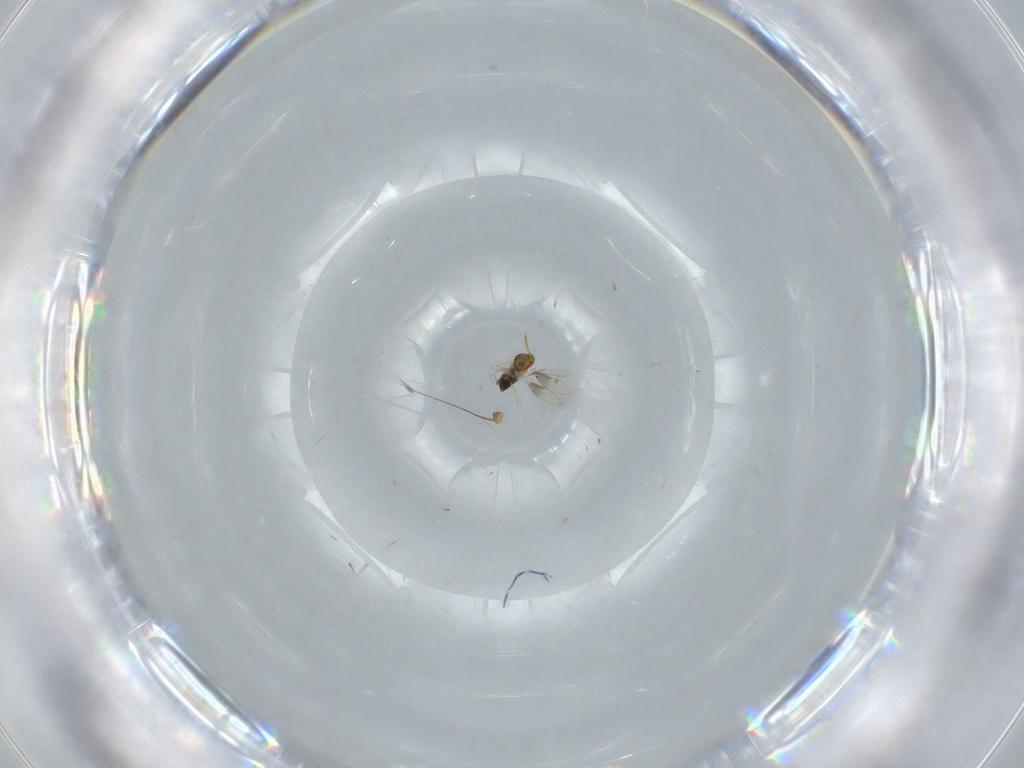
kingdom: Animalia
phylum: Arthropoda
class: Insecta
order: Hymenoptera
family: Aphelinidae
